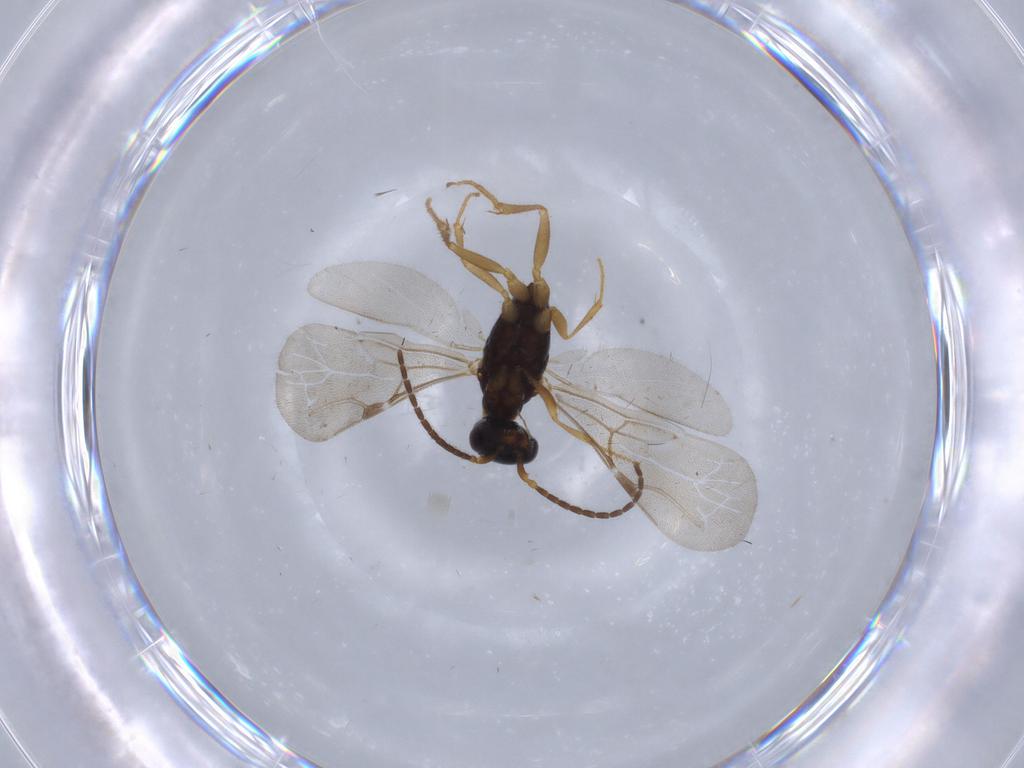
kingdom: Animalia
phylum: Arthropoda
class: Insecta
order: Hymenoptera
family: Bethylidae
